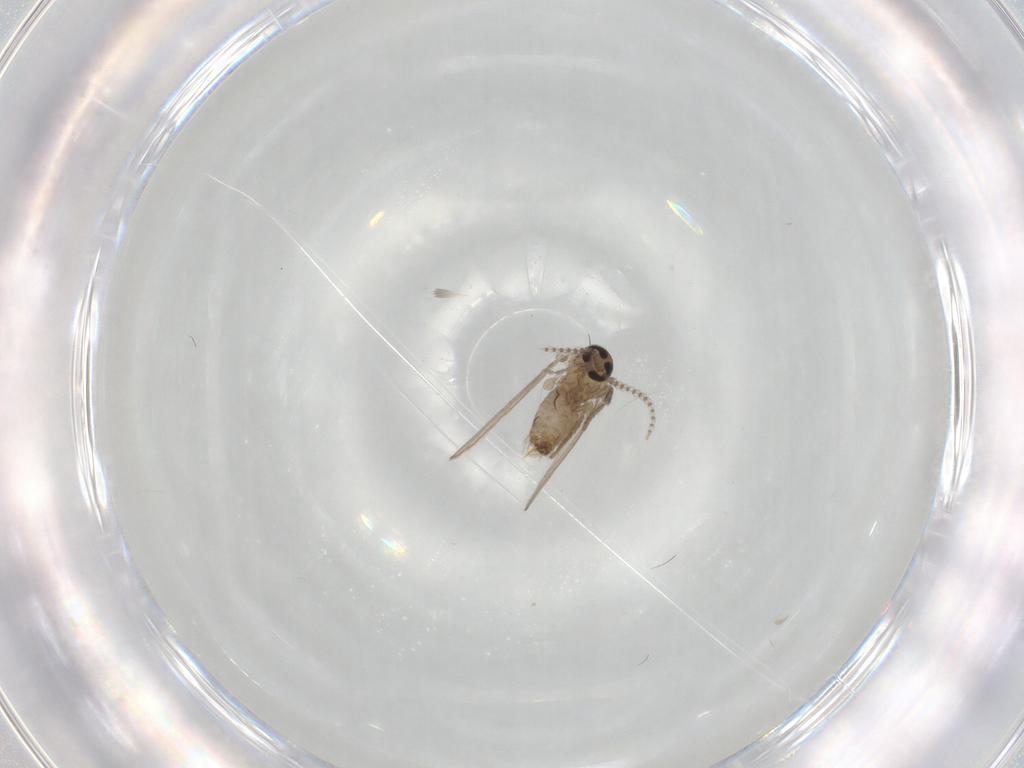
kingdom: Animalia
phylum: Arthropoda
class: Insecta
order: Diptera
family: Psychodidae
